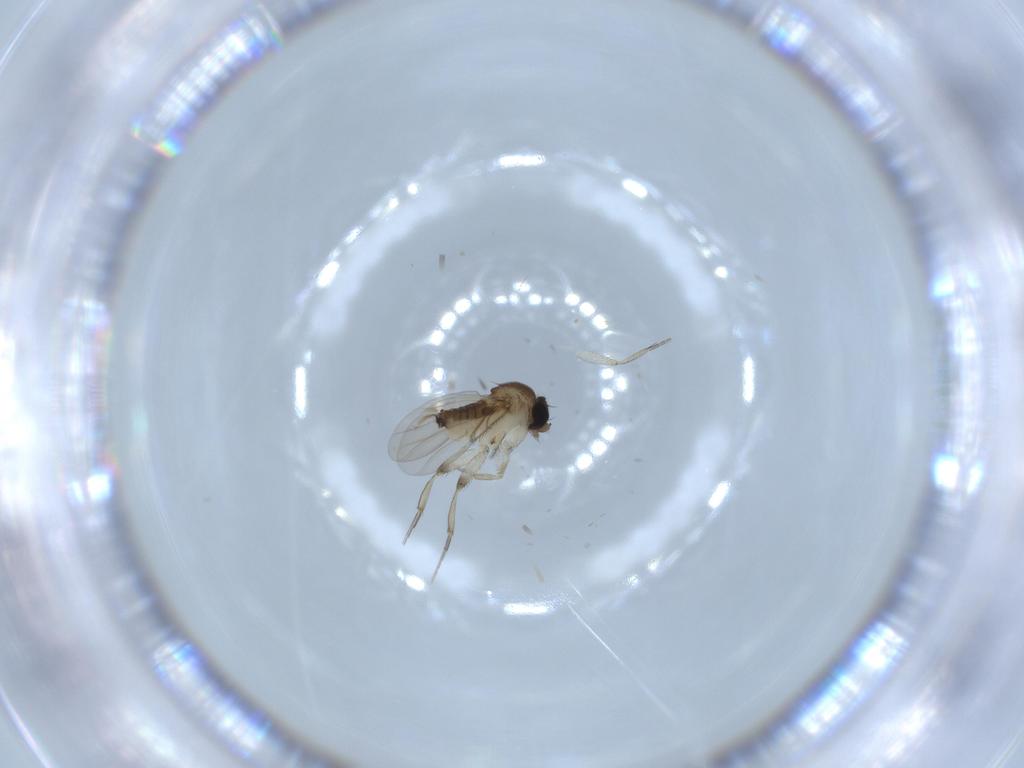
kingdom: Animalia
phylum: Arthropoda
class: Insecta
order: Diptera
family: Phoridae
